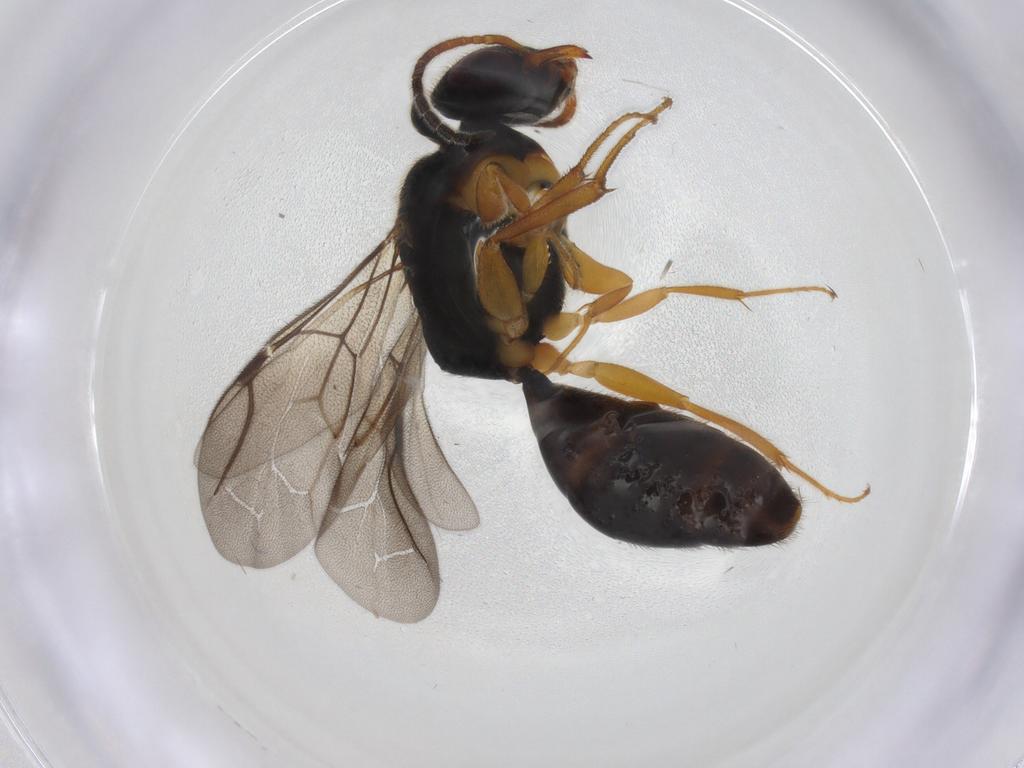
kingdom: Animalia
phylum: Arthropoda
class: Insecta
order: Hymenoptera
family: Bethylidae
